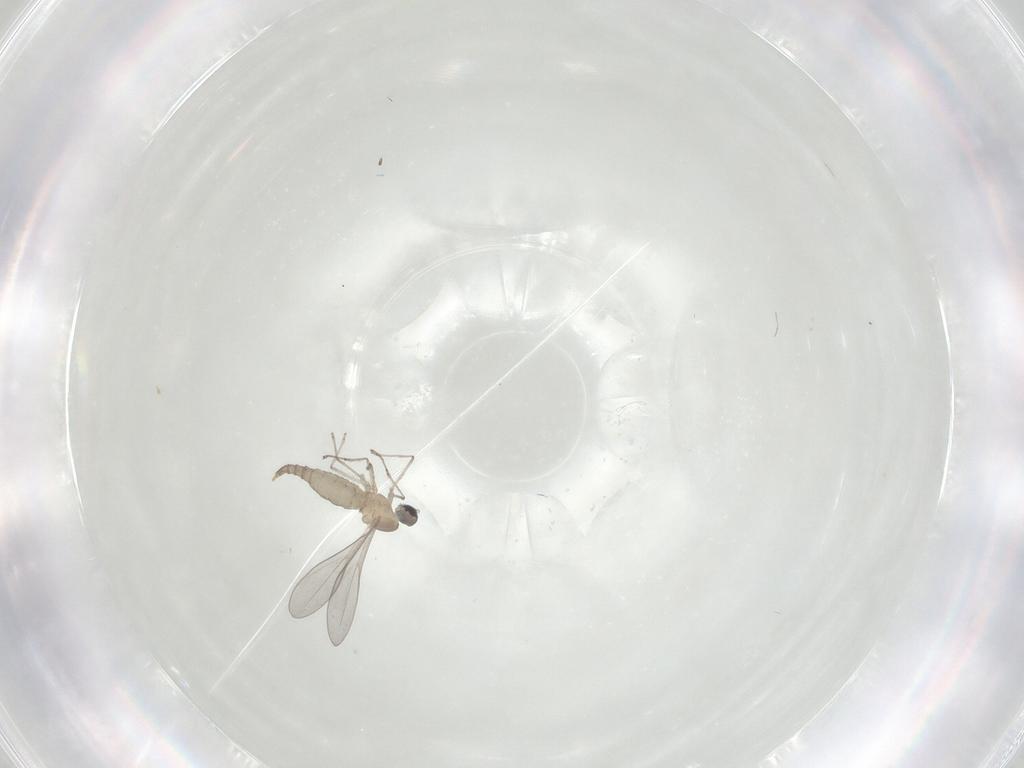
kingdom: Animalia
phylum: Arthropoda
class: Insecta
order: Diptera
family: Chironomidae
